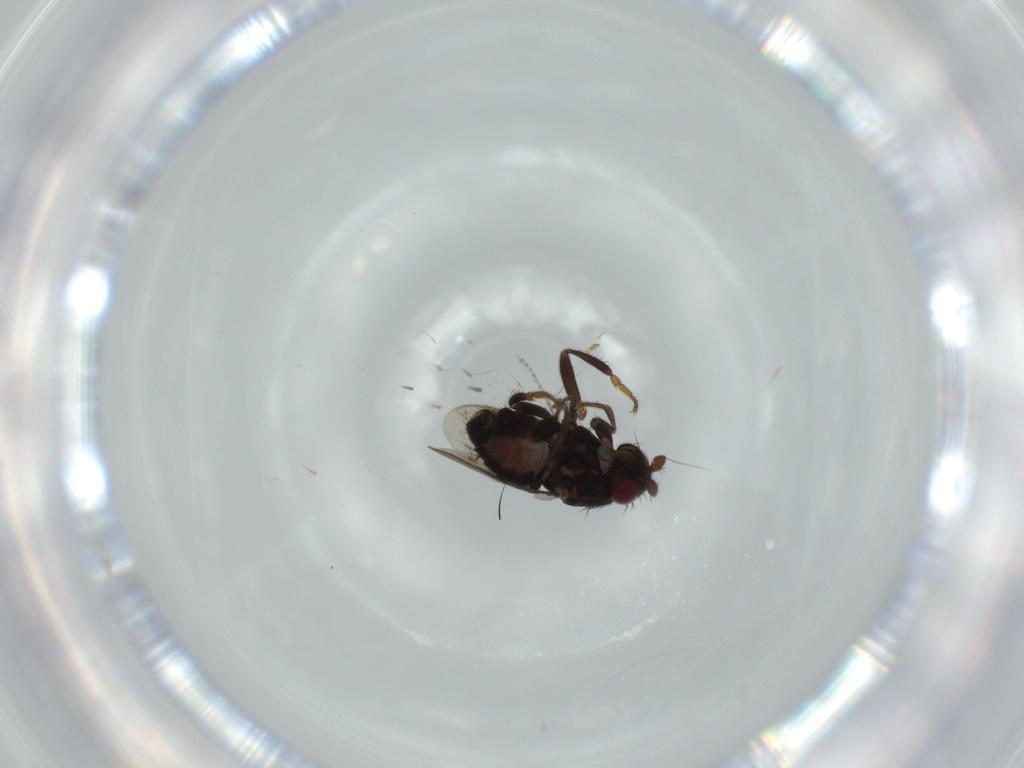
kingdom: Animalia
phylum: Arthropoda
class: Insecta
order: Diptera
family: Sphaeroceridae
